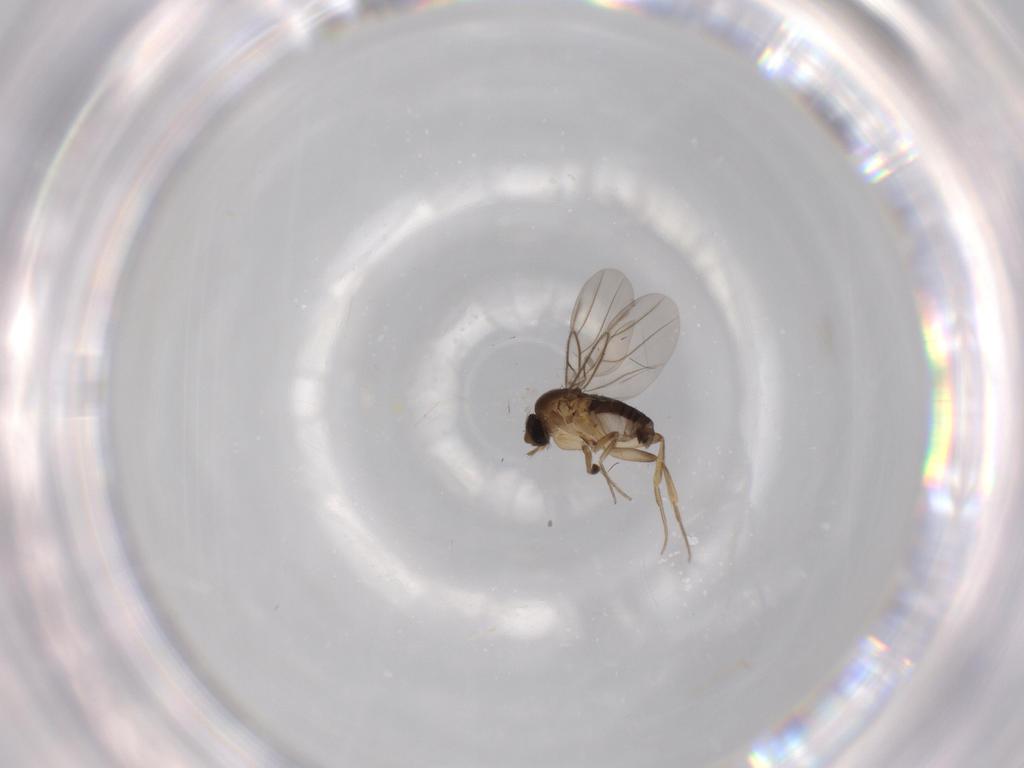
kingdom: Animalia
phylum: Arthropoda
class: Insecta
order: Diptera
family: Phoridae
